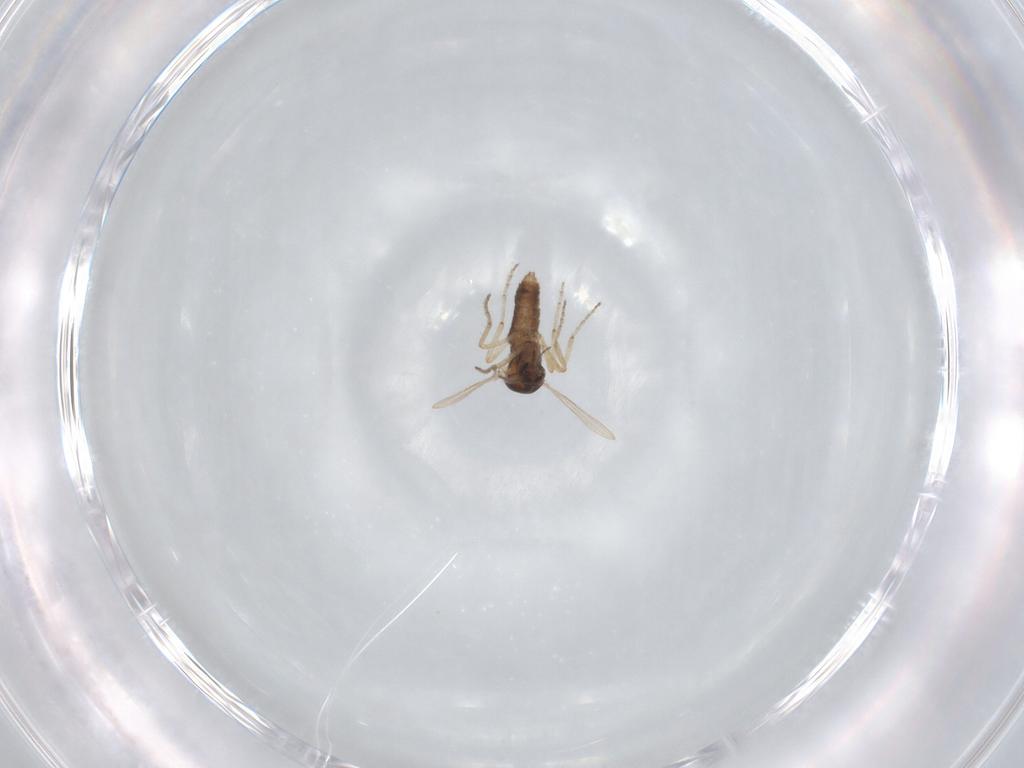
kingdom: Animalia
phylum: Arthropoda
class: Insecta
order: Diptera
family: Ceratopogonidae
